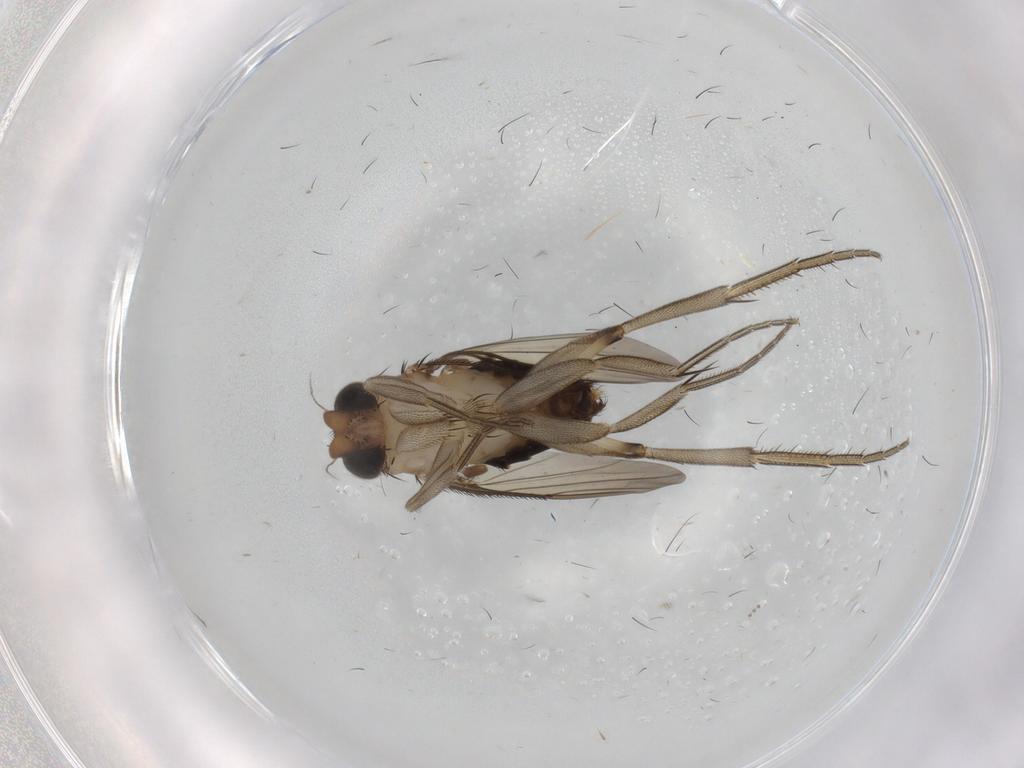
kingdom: Animalia
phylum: Arthropoda
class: Insecta
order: Diptera
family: Phoridae
